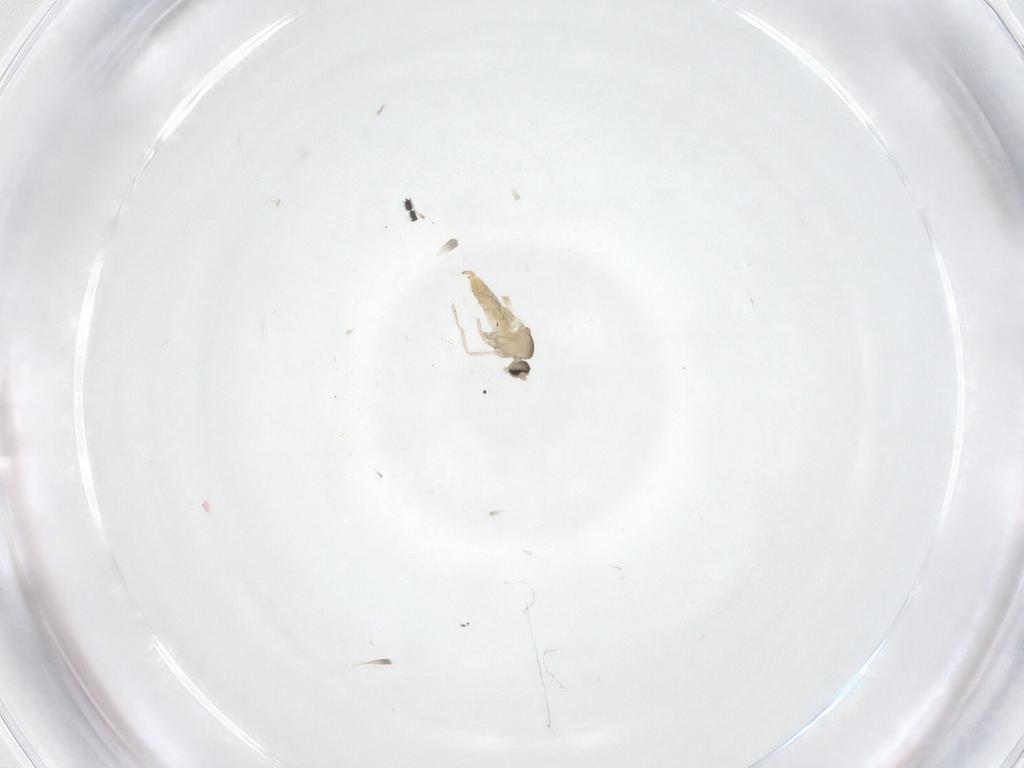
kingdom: Animalia
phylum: Arthropoda
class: Insecta
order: Diptera
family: Cecidomyiidae
